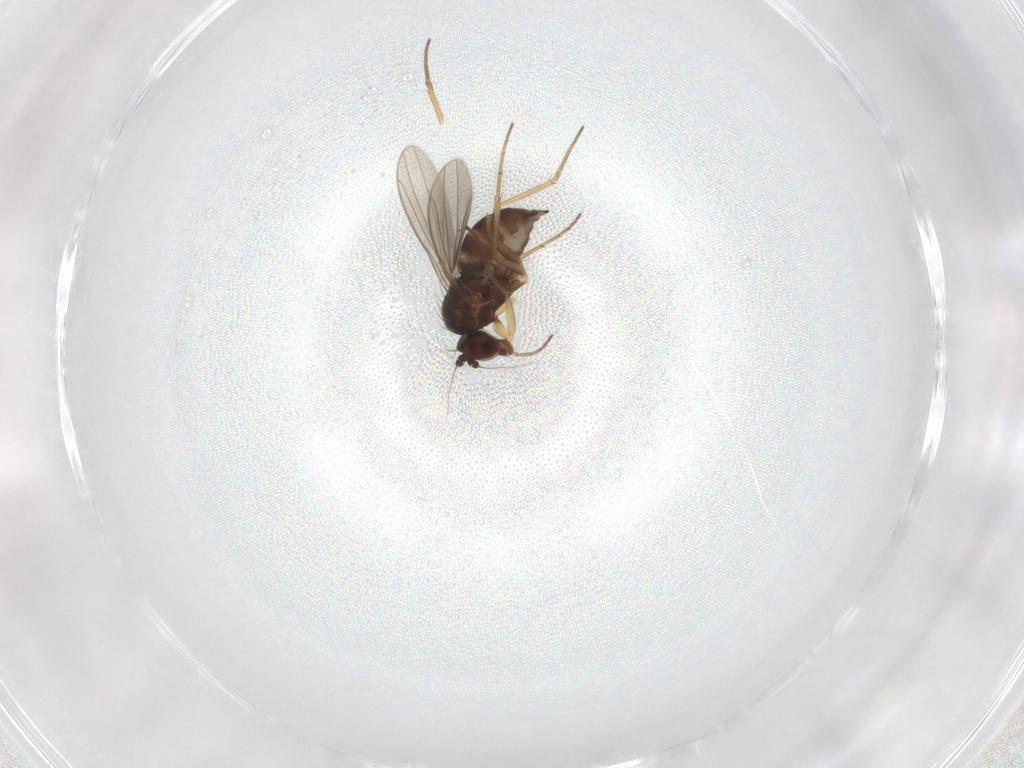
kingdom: Animalia
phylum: Arthropoda
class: Insecta
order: Diptera
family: Dolichopodidae
